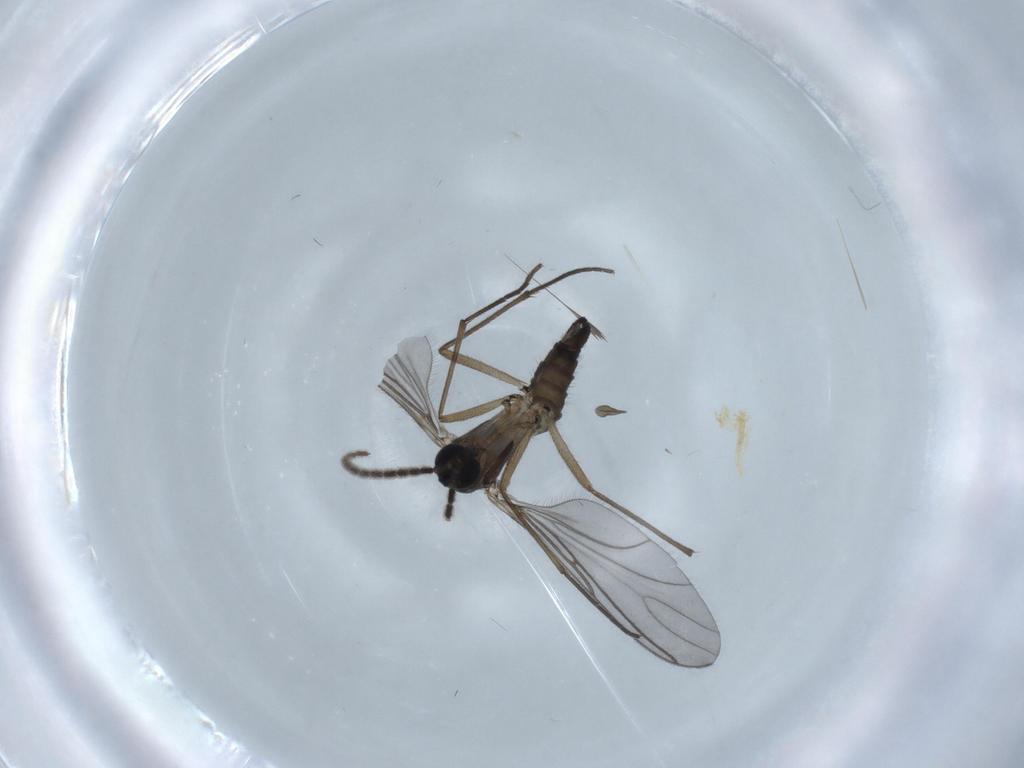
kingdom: Animalia
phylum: Arthropoda
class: Insecta
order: Diptera
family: Sciaridae
